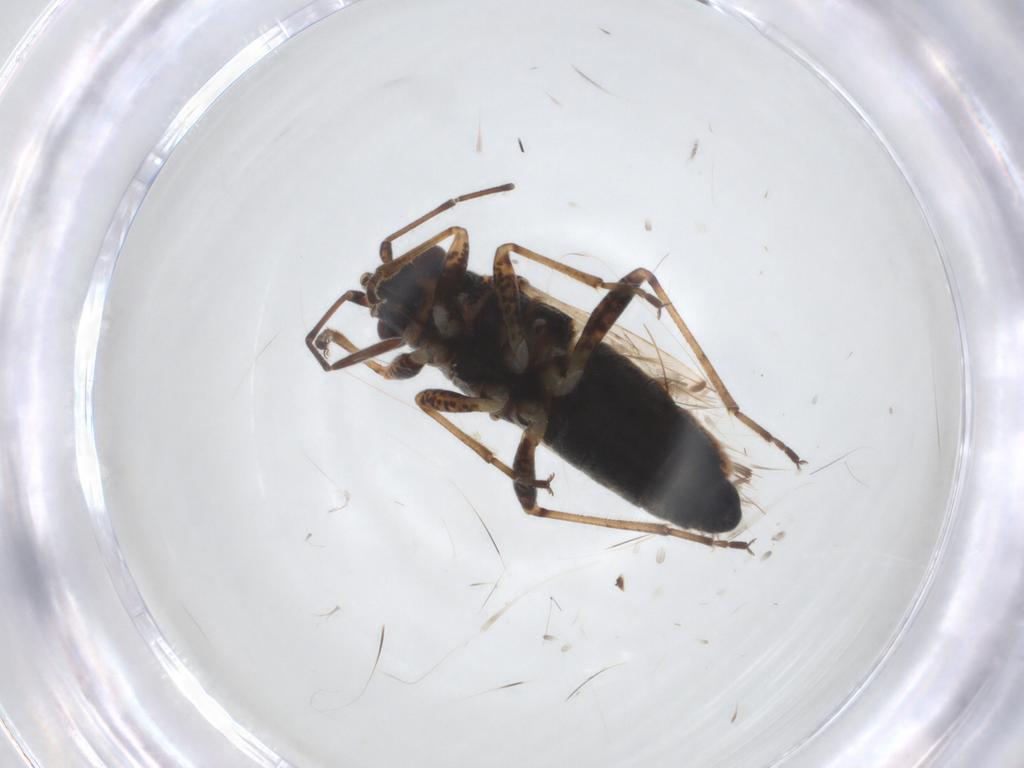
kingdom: Animalia
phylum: Arthropoda
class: Insecta
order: Hemiptera
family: Lygaeidae
